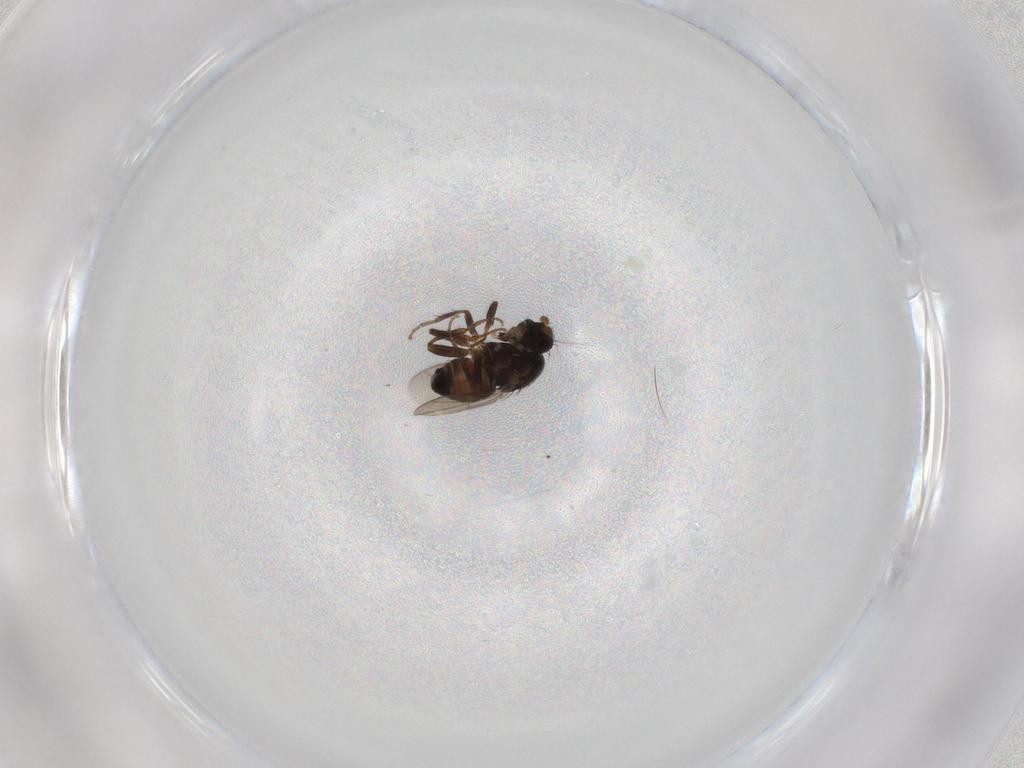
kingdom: Animalia
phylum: Arthropoda
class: Insecta
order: Diptera
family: Sphaeroceridae
